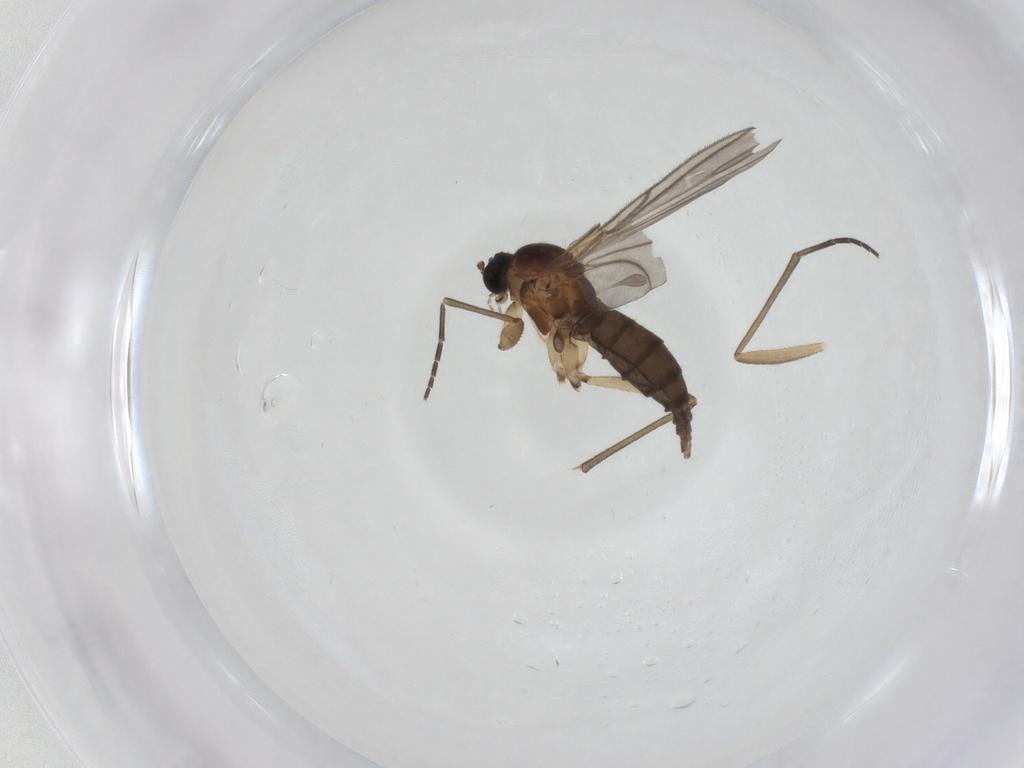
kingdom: Animalia
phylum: Arthropoda
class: Insecta
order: Diptera
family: Sciaridae
